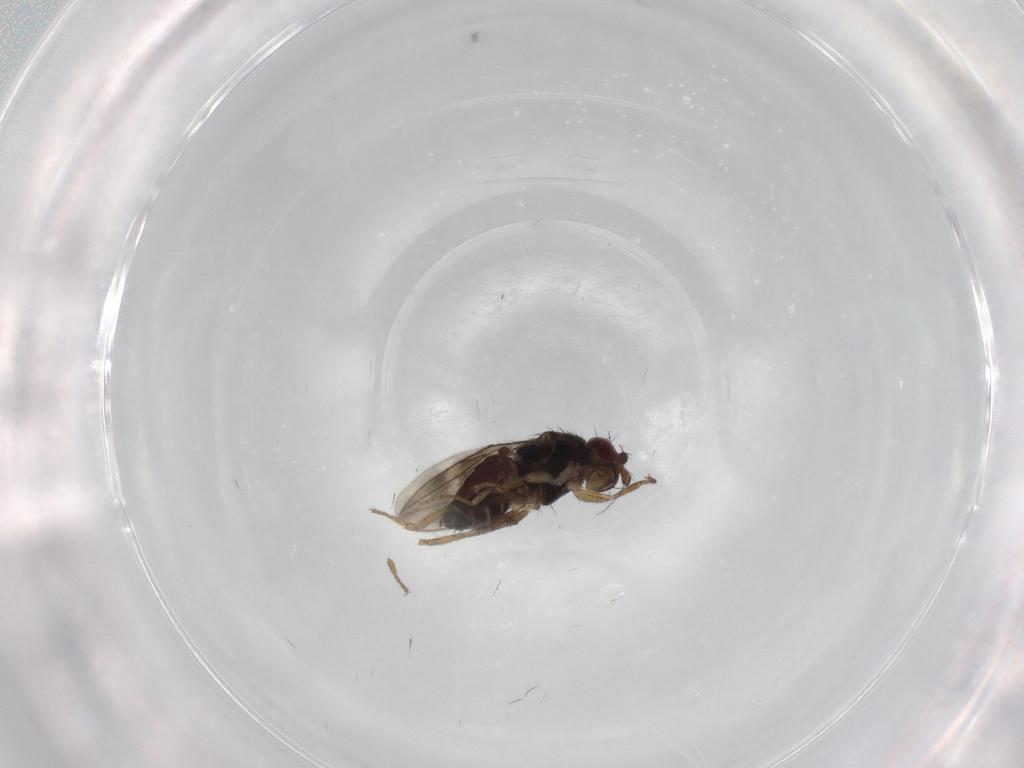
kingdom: Animalia
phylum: Arthropoda
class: Insecta
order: Diptera
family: Sphaeroceridae
